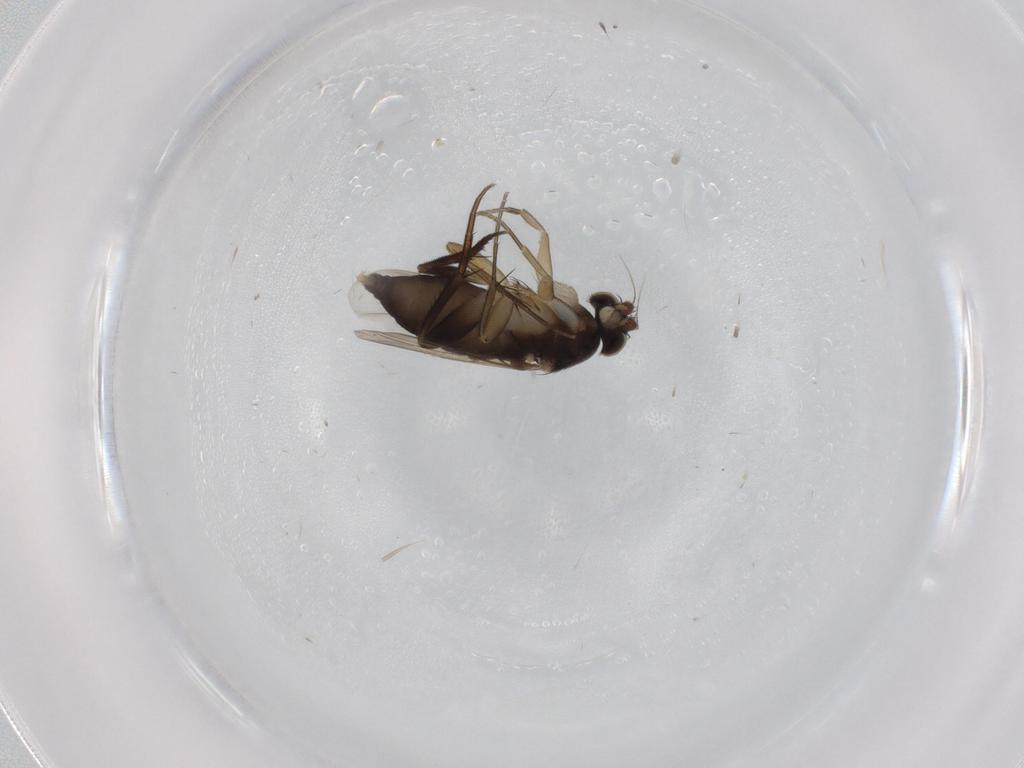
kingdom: Animalia
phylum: Arthropoda
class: Insecta
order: Diptera
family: Phoridae
